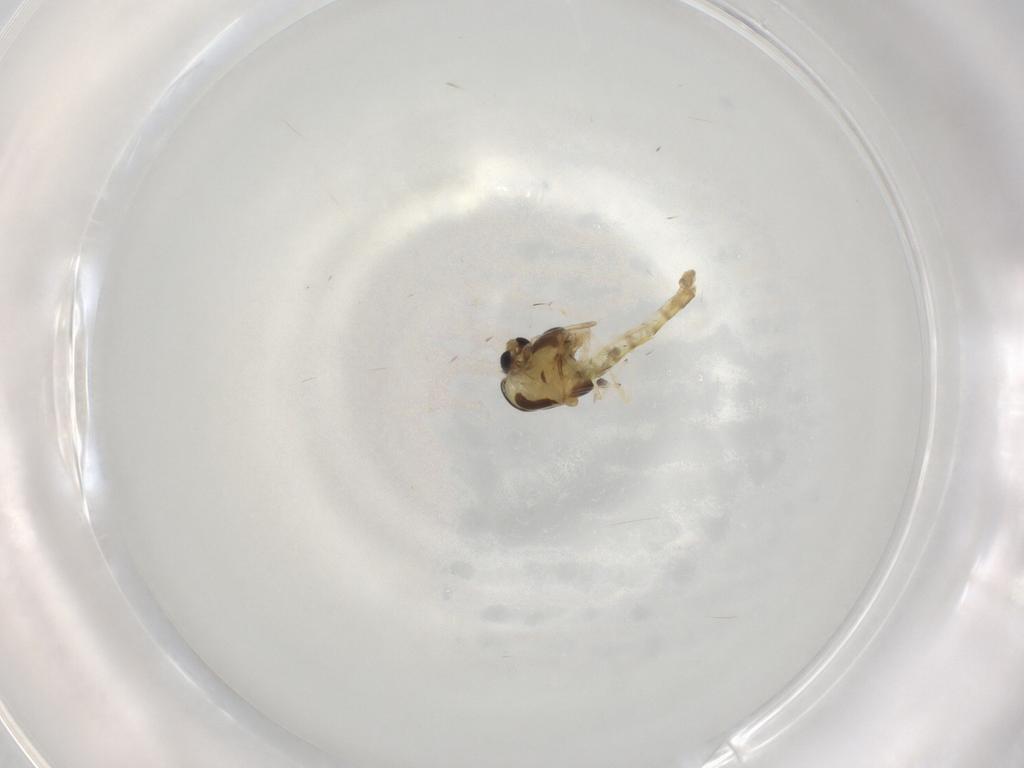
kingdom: Animalia
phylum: Arthropoda
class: Insecta
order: Diptera
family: Chironomidae
